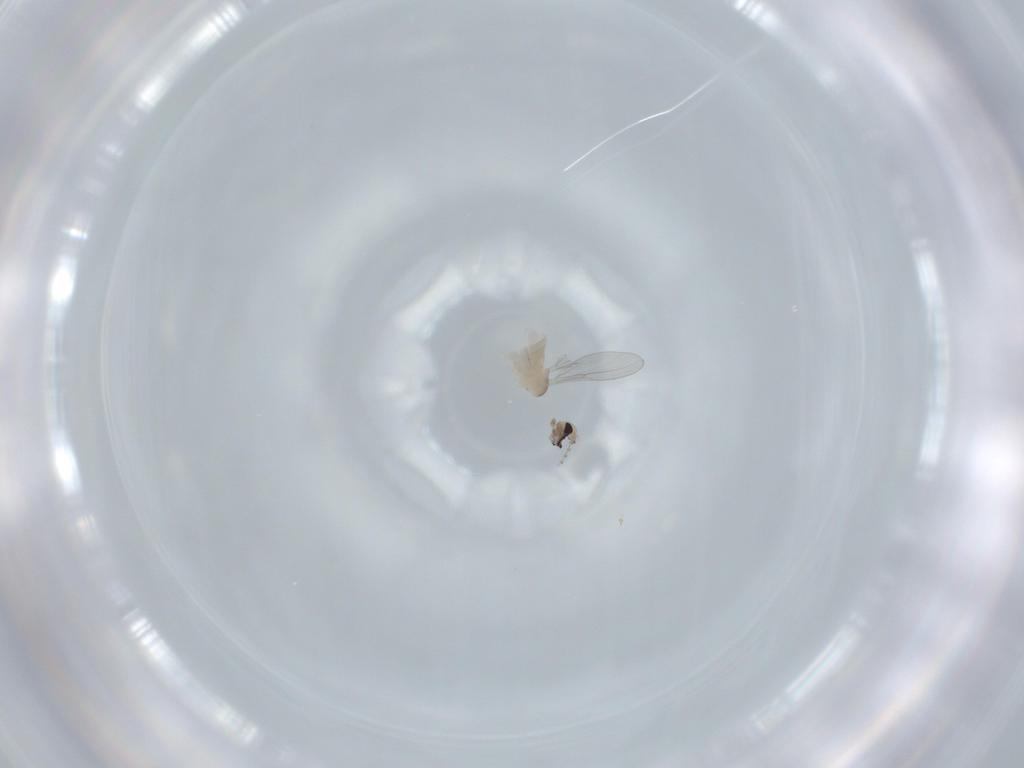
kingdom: Animalia
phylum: Arthropoda
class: Insecta
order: Diptera
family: Cecidomyiidae
